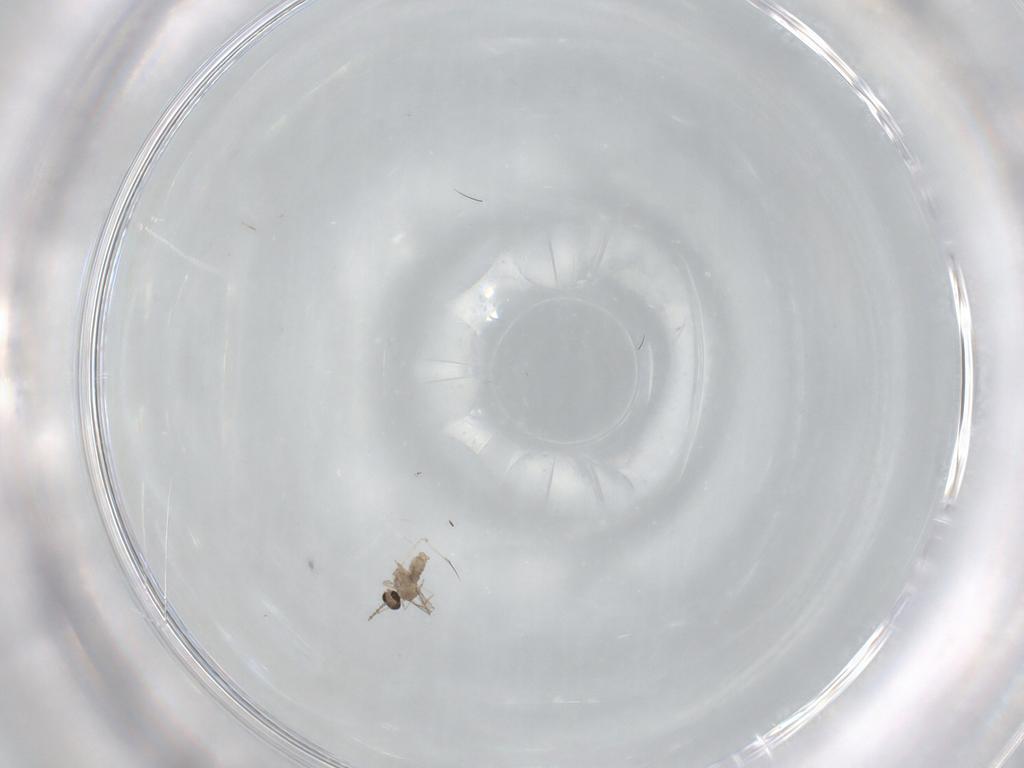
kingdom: Animalia
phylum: Arthropoda
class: Insecta
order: Diptera
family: Cecidomyiidae
